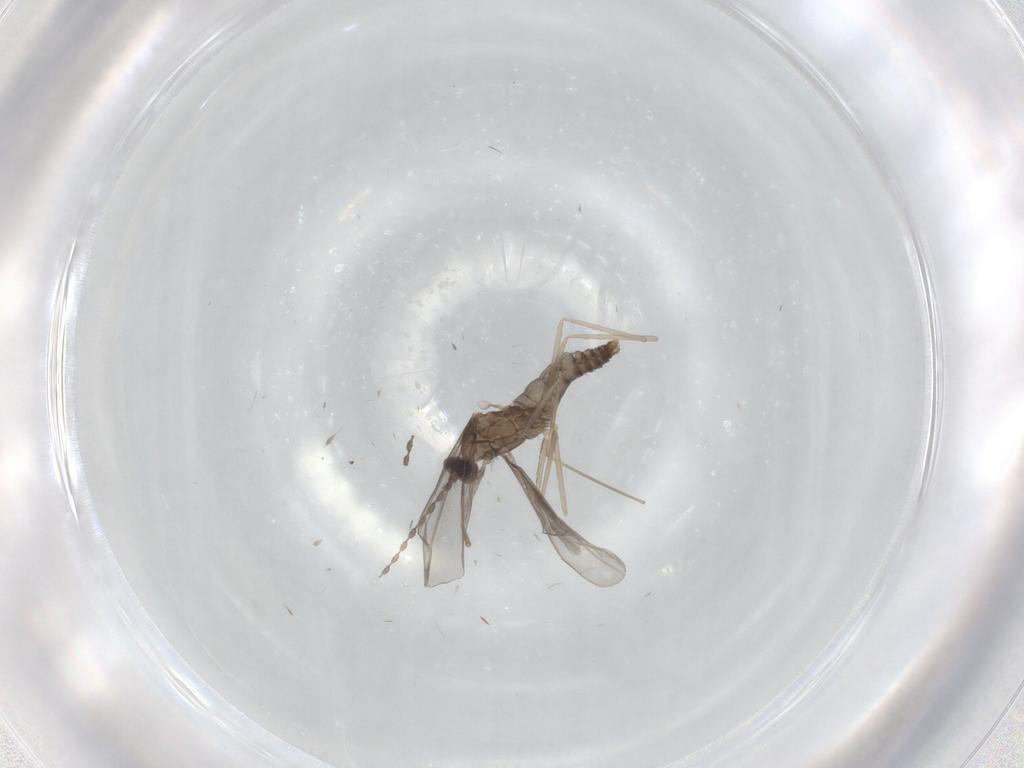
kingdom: Animalia
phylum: Arthropoda
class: Insecta
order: Diptera
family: Cecidomyiidae
